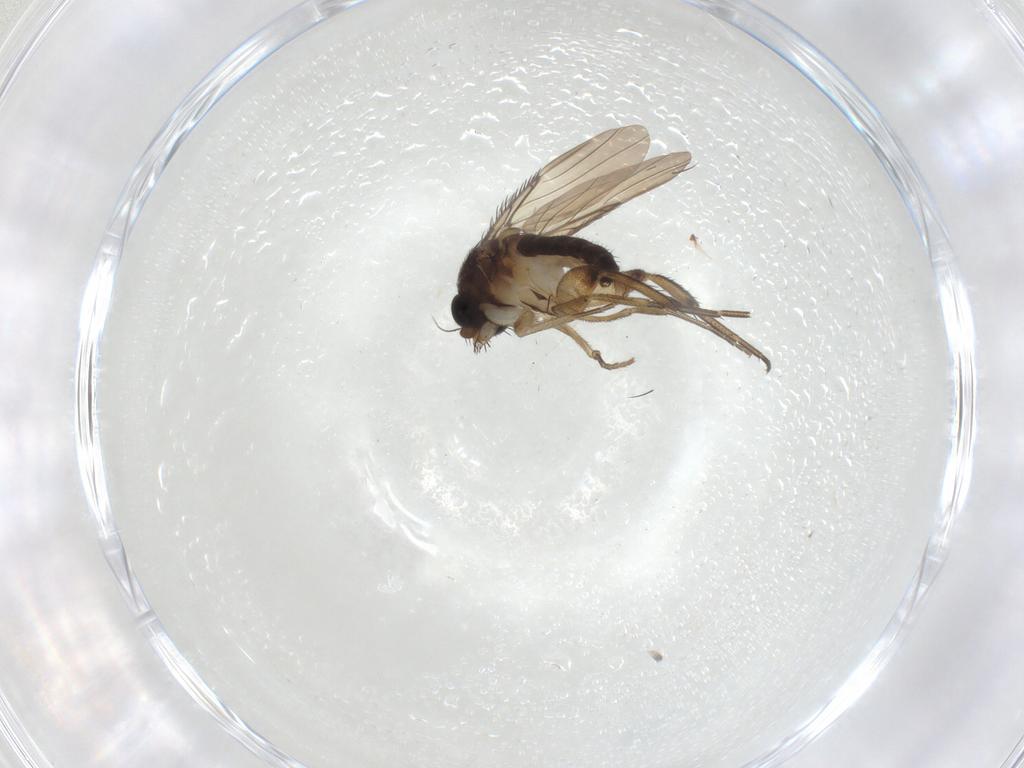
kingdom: Animalia
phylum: Arthropoda
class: Insecta
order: Diptera
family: Phoridae
